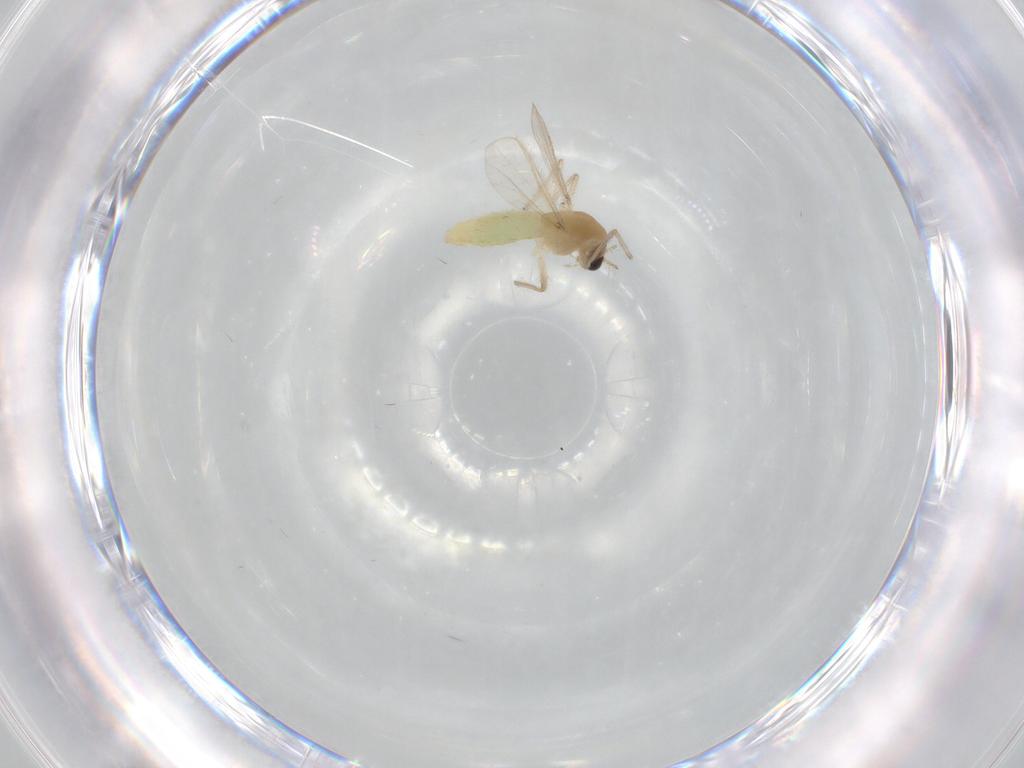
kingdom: Animalia
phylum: Arthropoda
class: Insecta
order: Diptera
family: Chironomidae
